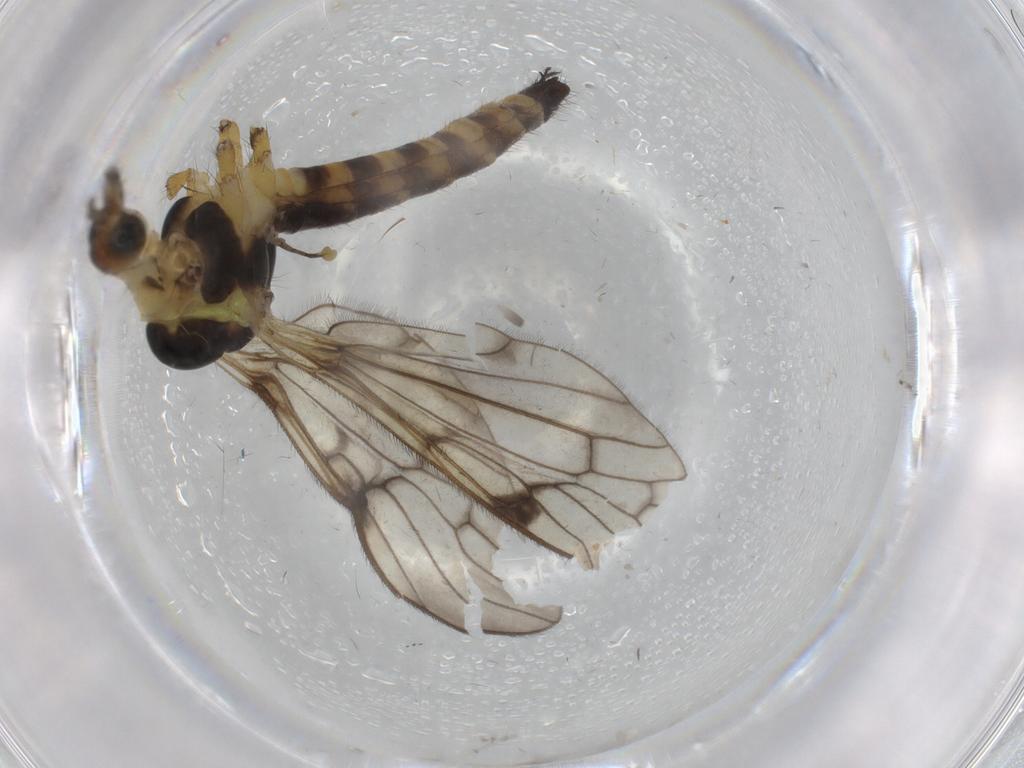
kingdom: Animalia
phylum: Arthropoda
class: Insecta
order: Diptera
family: Limoniidae
